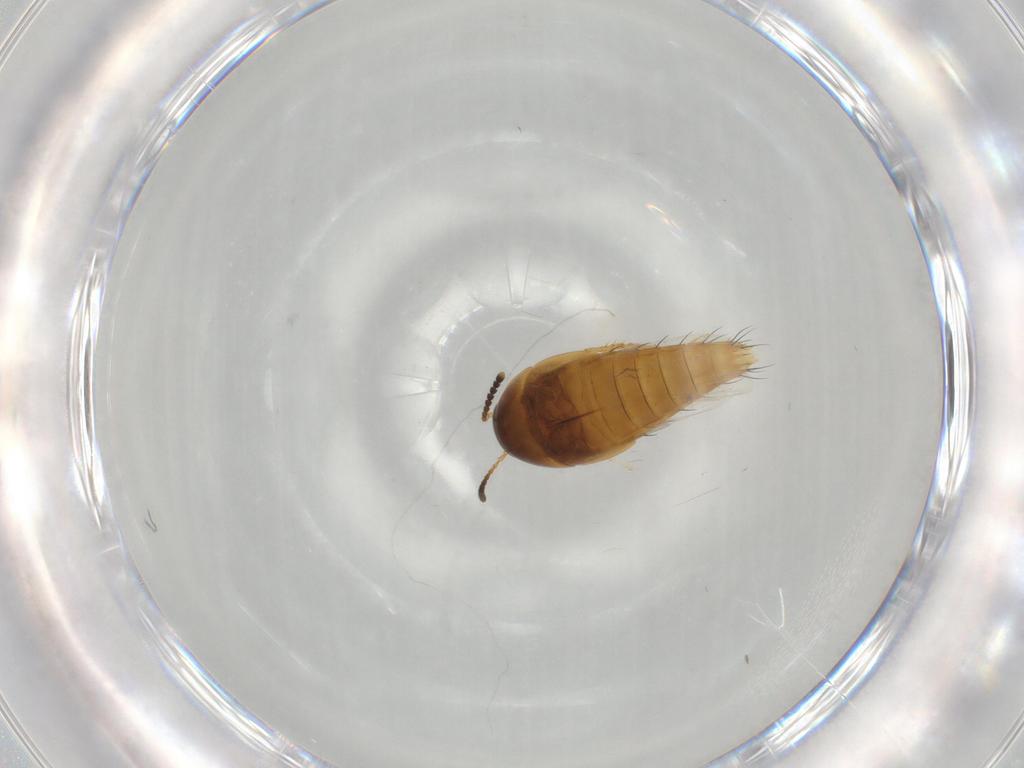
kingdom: Animalia
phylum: Arthropoda
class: Insecta
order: Coleoptera
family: Staphylinidae
